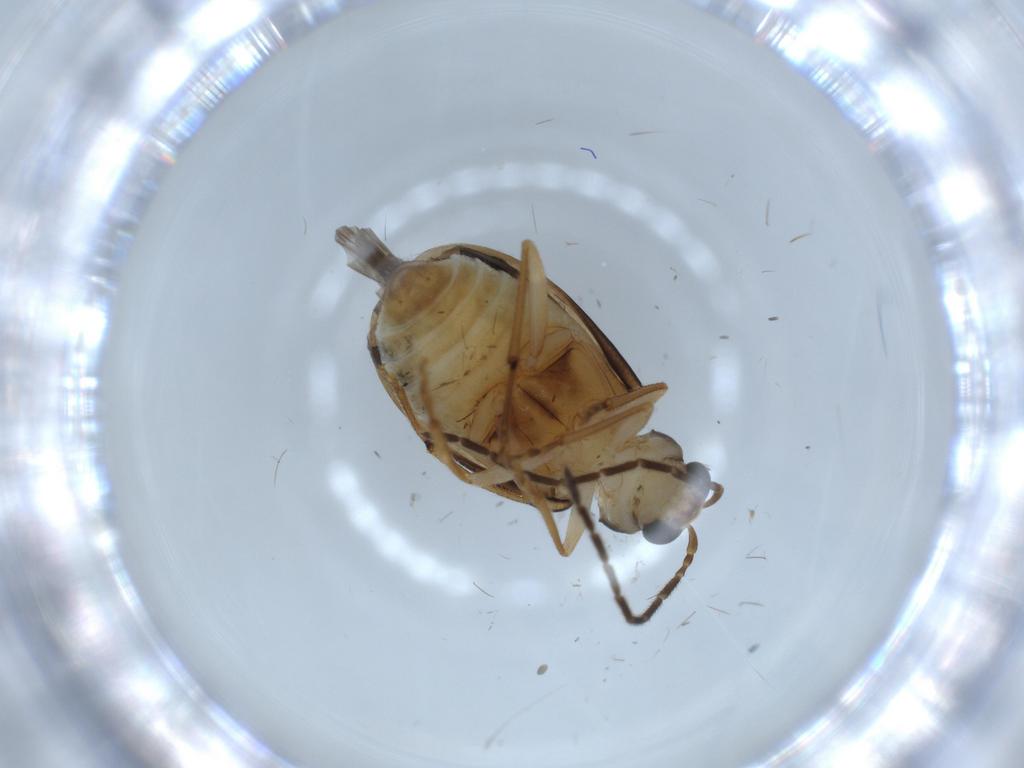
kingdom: Animalia
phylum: Arthropoda
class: Insecta
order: Coleoptera
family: Chrysomelidae
